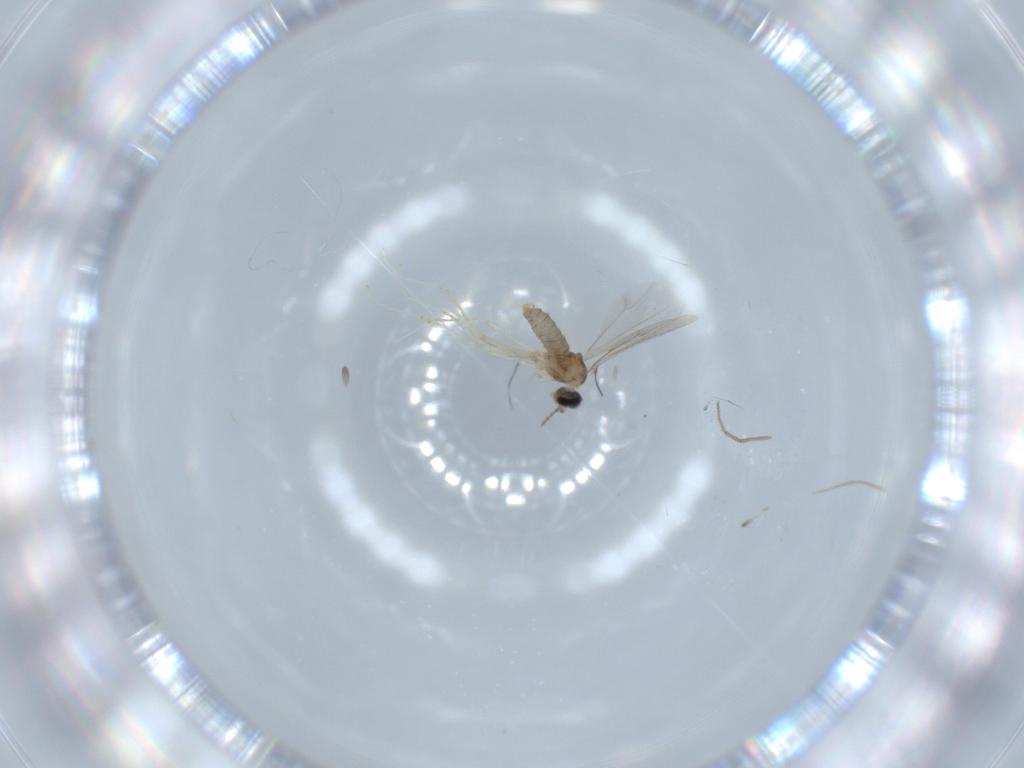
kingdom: Animalia
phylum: Arthropoda
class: Insecta
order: Diptera
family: Cecidomyiidae
